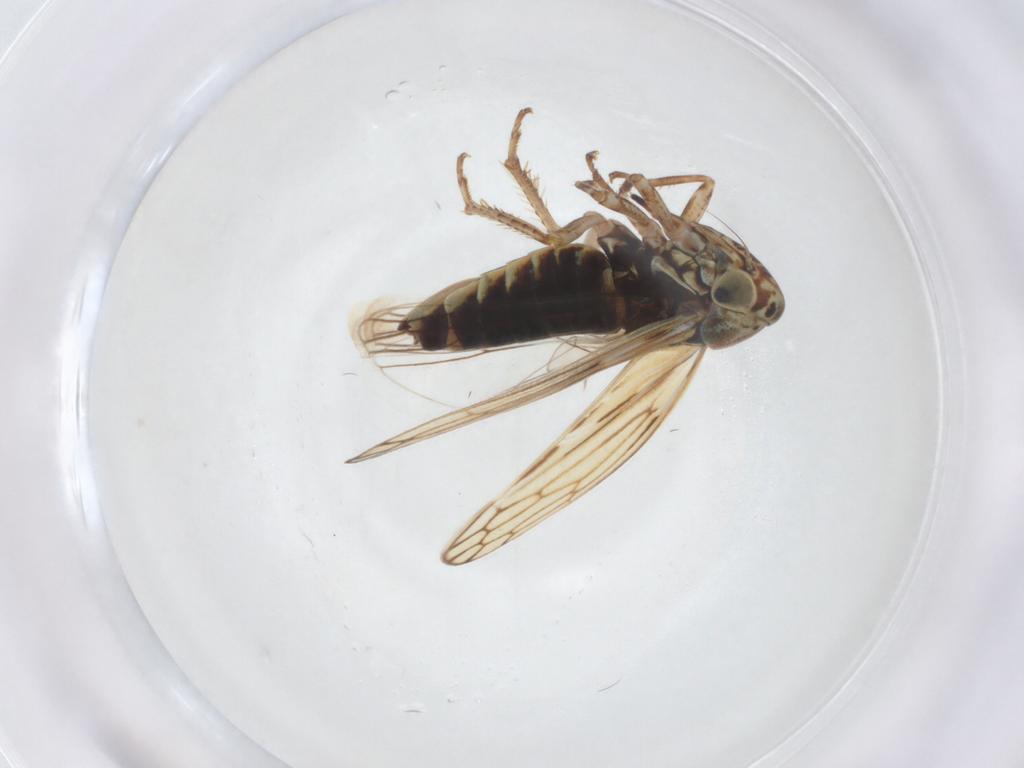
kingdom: Animalia
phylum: Arthropoda
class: Insecta
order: Hemiptera
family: Cicadellidae
